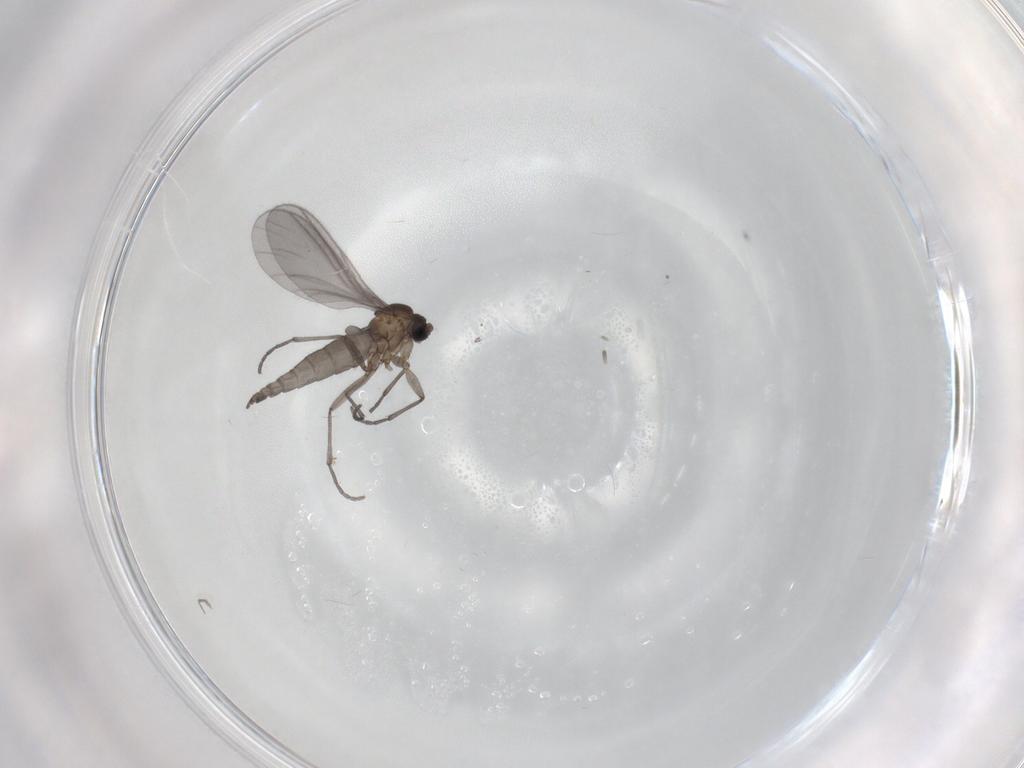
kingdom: Animalia
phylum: Arthropoda
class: Insecta
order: Diptera
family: Sciaridae
